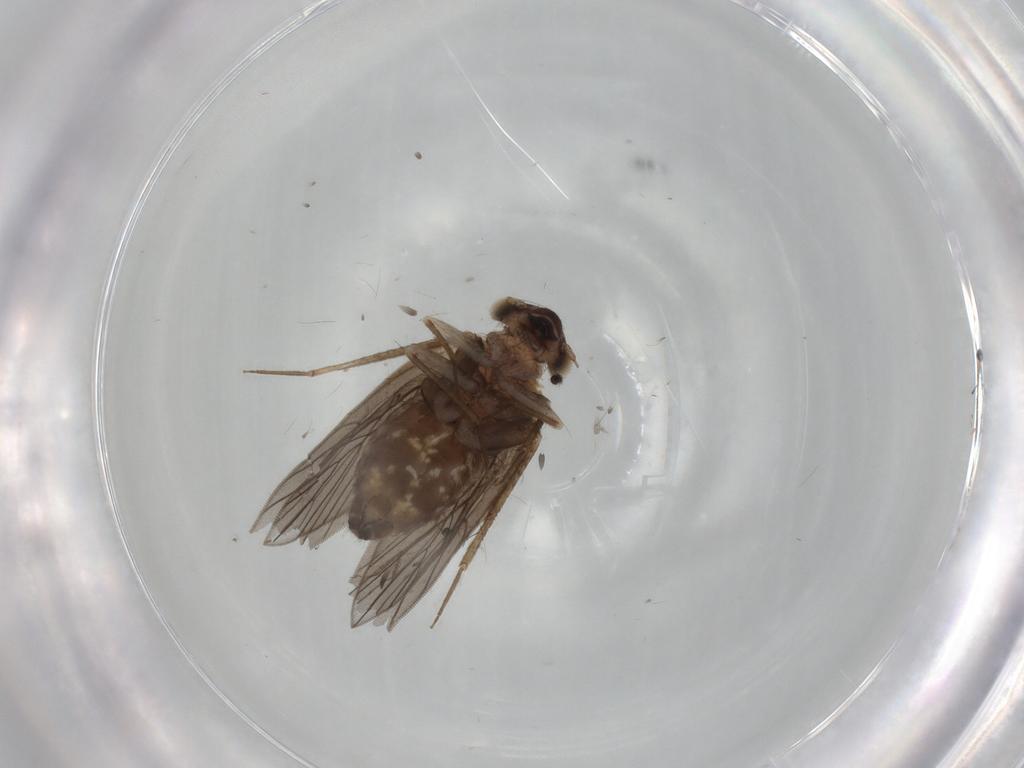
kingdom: Animalia
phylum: Arthropoda
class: Insecta
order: Psocodea
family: Lepidopsocidae
